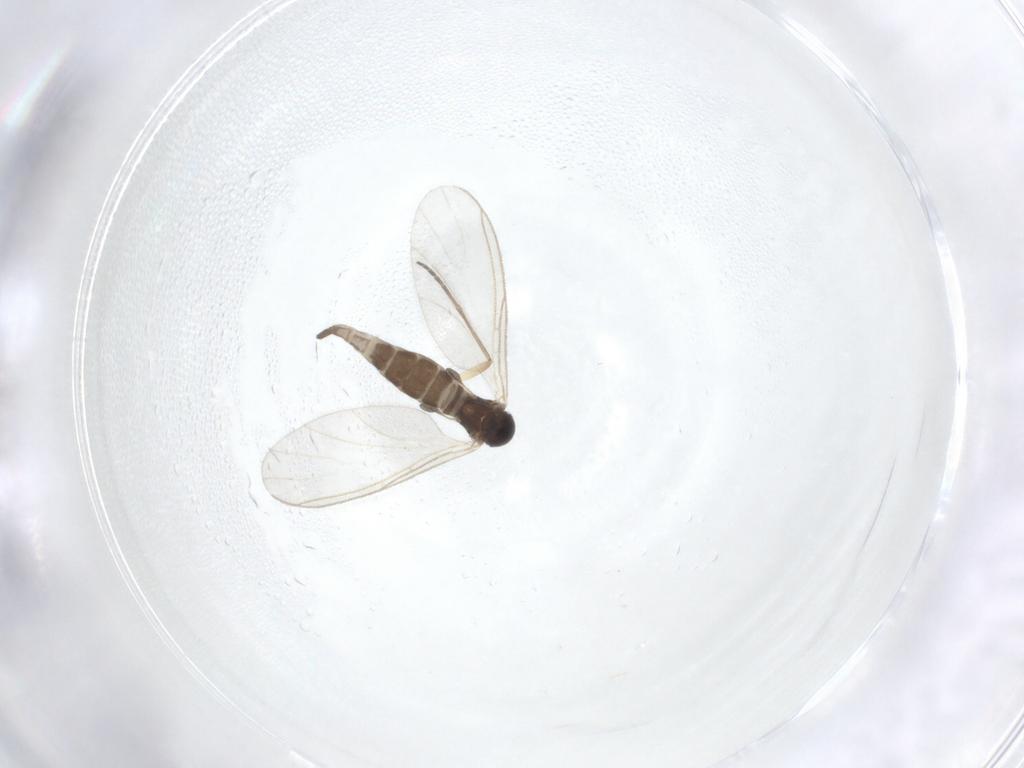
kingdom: Animalia
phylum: Arthropoda
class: Insecta
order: Diptera
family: Sciaridae
